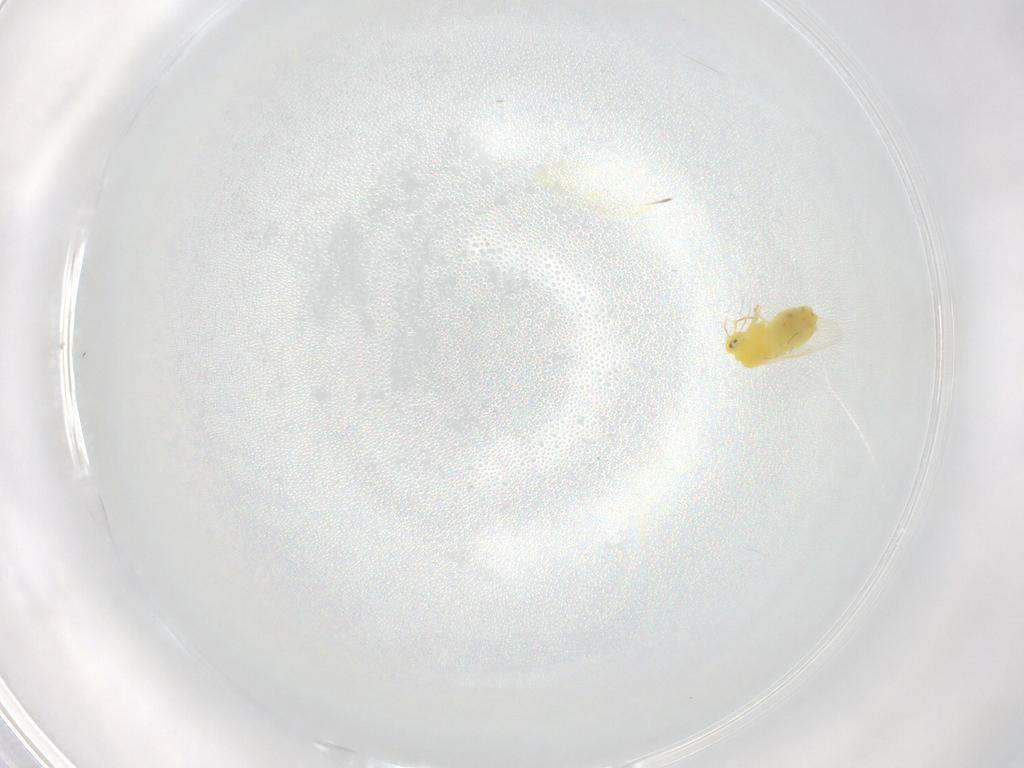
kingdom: Animalia
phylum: Arthropoda
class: Insecta
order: Hemiptera
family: Aleyrodidae
